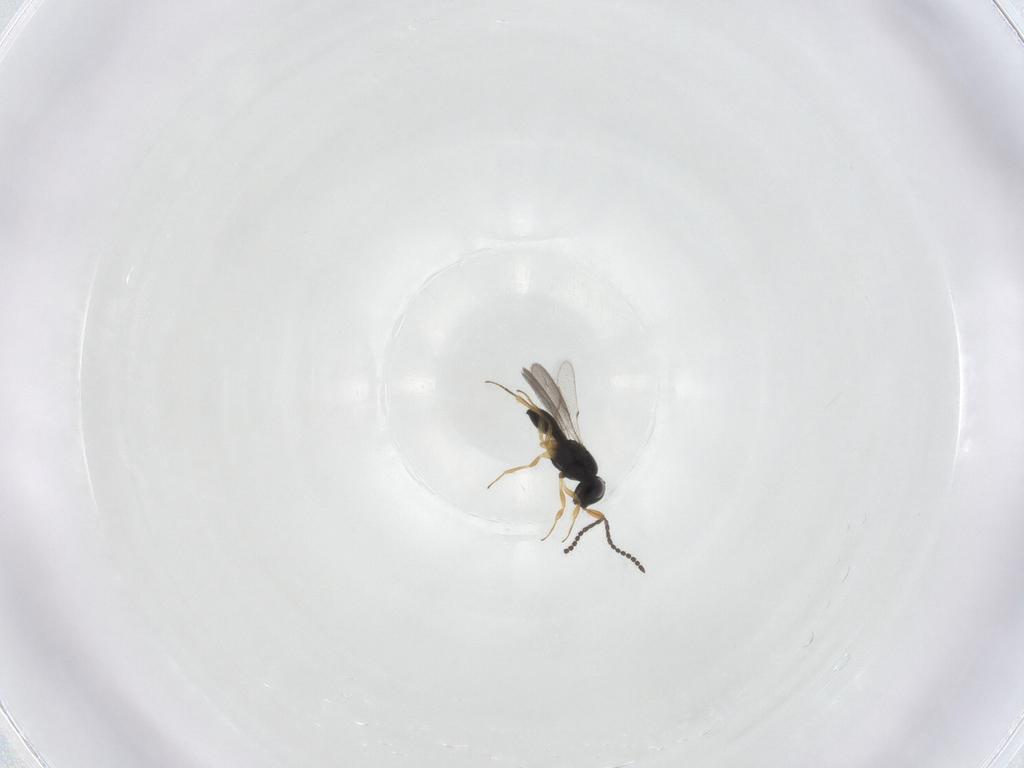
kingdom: Animalia
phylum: Arthropoda
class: Insecta
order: Hymenoptera
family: Scelionidae
